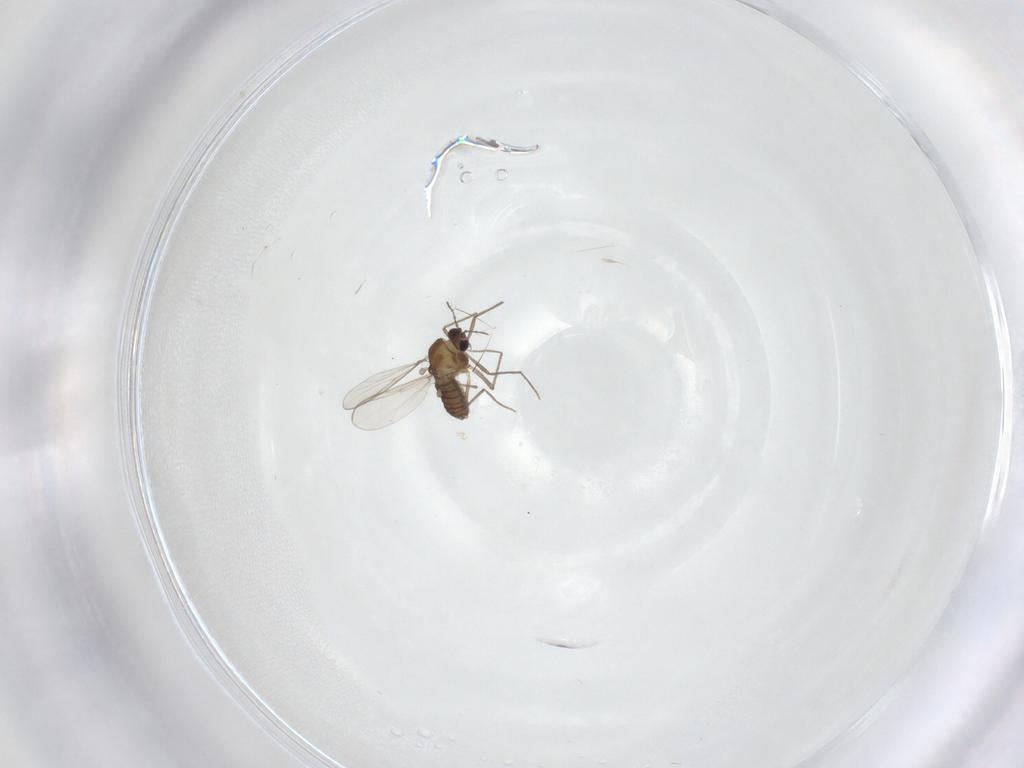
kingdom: Animalia
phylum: Arthropoda
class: Insecta
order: Diptera
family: Chironomidae
